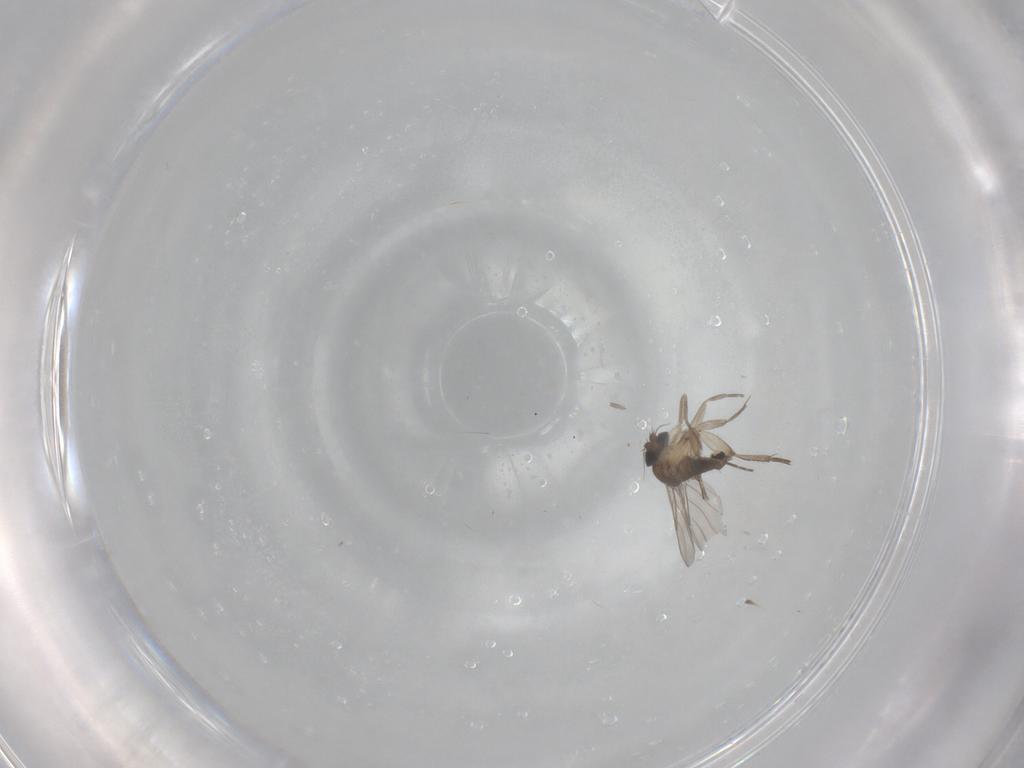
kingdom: Animalia
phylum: Arthropoda
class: Insecta
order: Diptera
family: Phoridae
